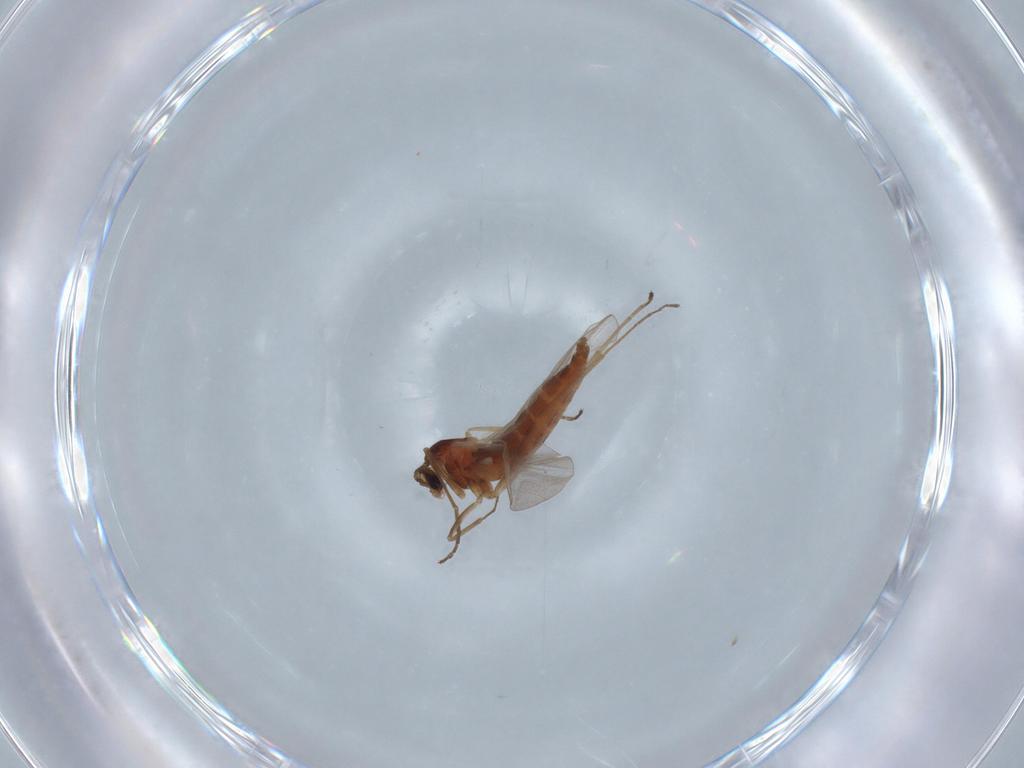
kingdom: Animalia
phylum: Arthropoda
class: Insecta
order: Diptera
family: Cecidomyiidae
